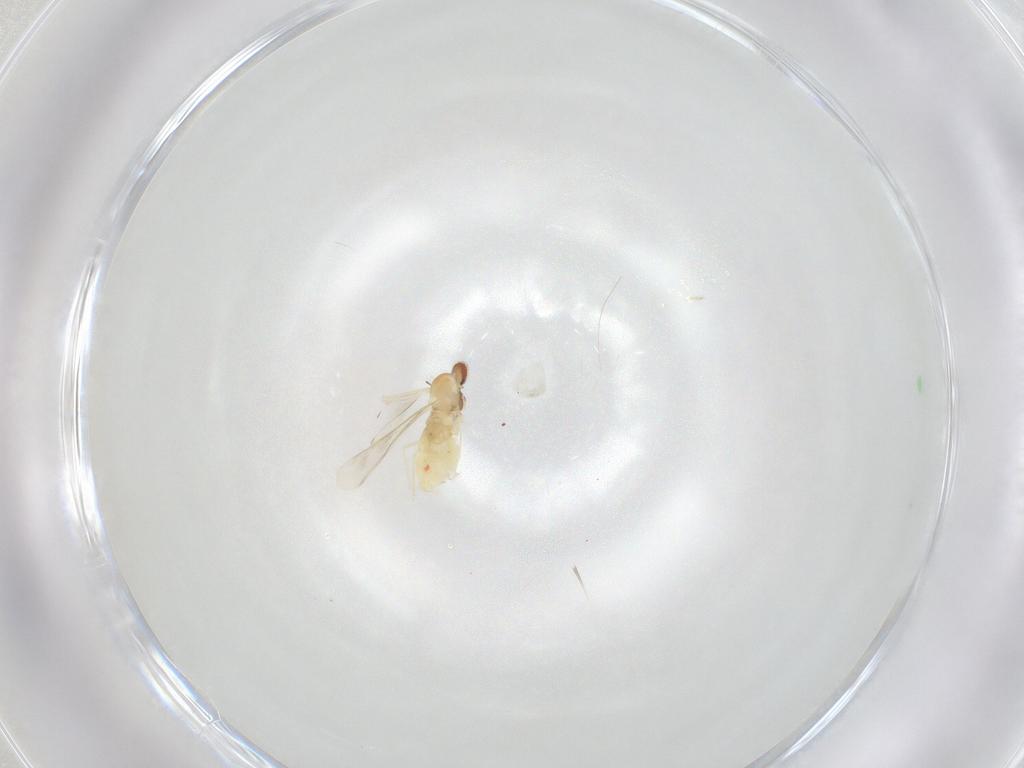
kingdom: Animalia
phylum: Arthropoda
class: Insecta
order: Diptera
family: Cecidomyiidae
